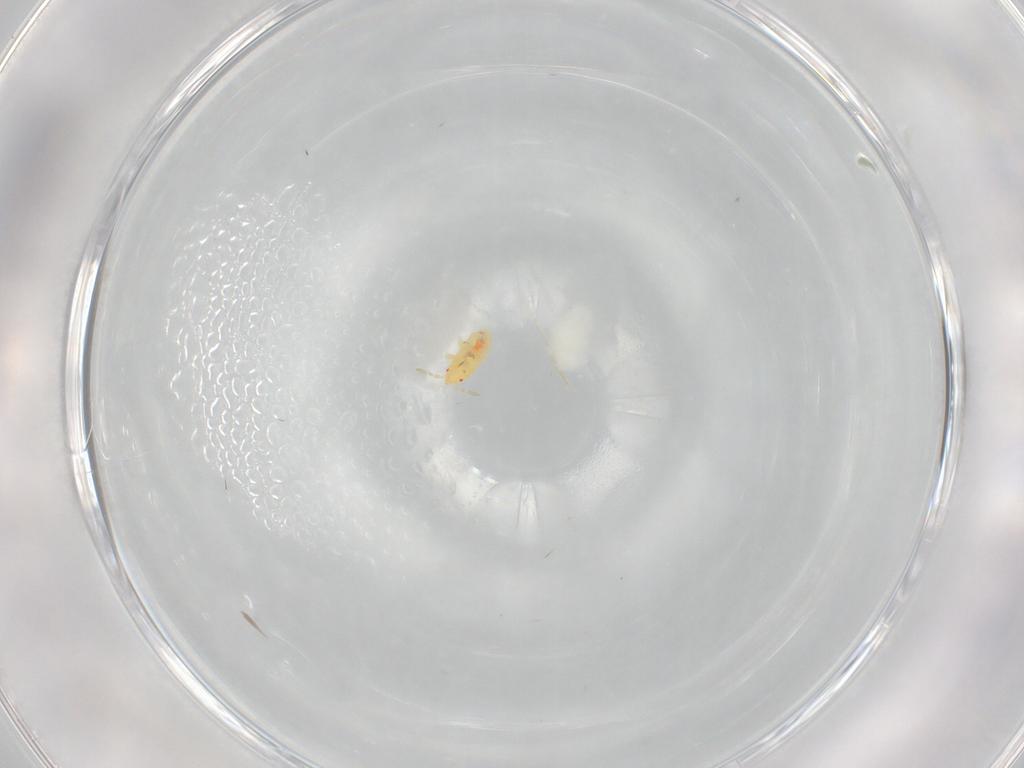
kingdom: Animalia
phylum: Arthropoda
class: Insecta
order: Hemiptera
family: Anthocoridae
